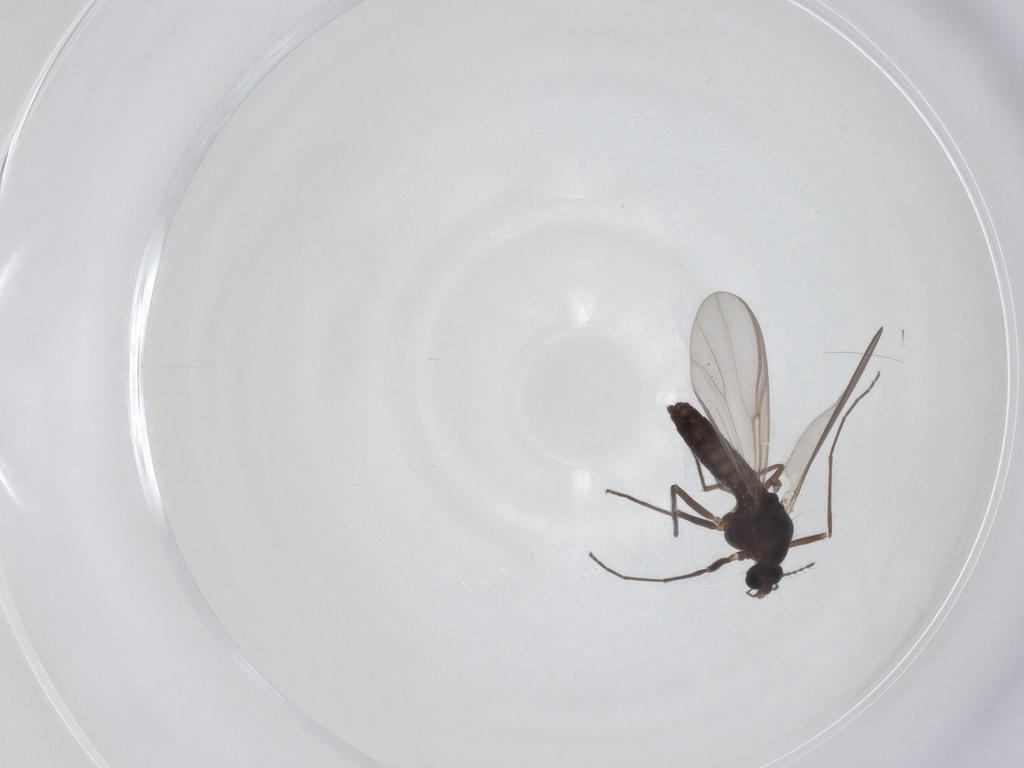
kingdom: Animalia
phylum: Arthropoda
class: Insecta
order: Diptera
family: Chironomidae
